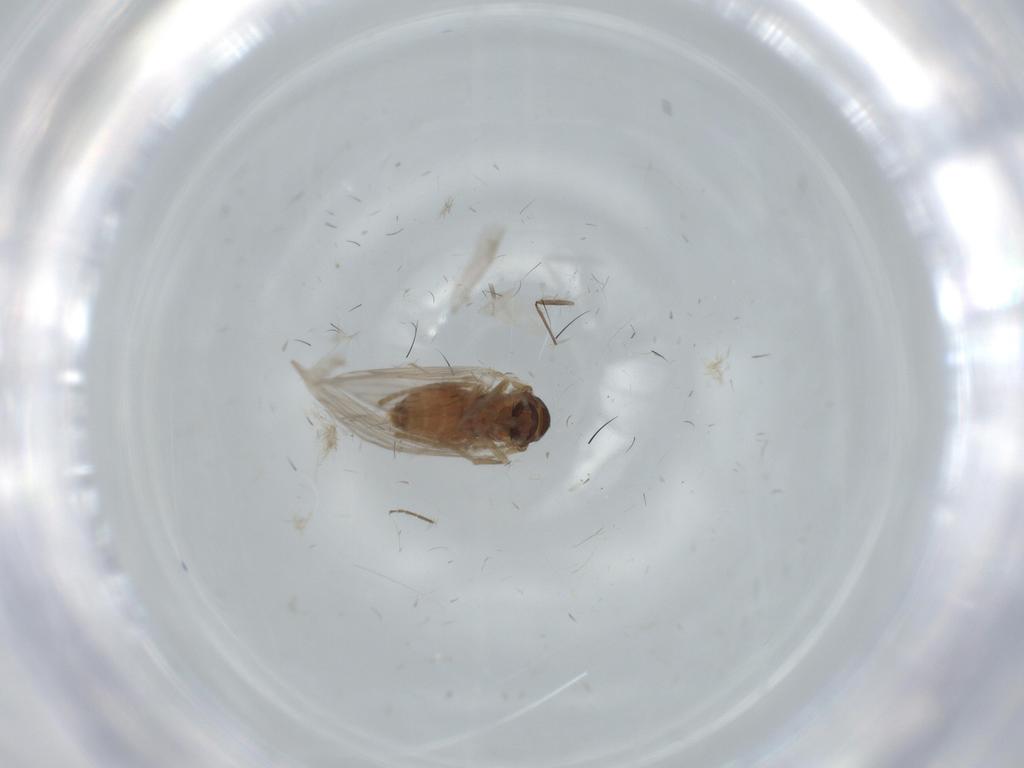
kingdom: Animalia
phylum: Arthropoda
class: Insecta
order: Diptera
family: Psychodidae
